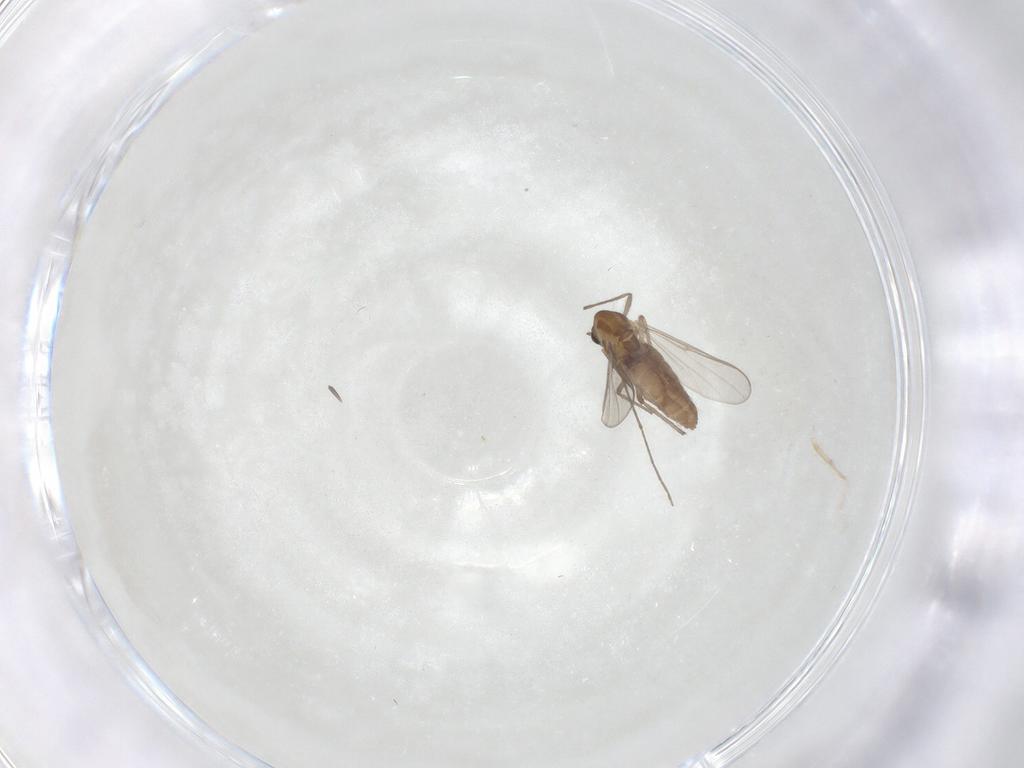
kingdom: Animalia
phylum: Arthropoda
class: Insecta
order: Diptera
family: Chironomidae
